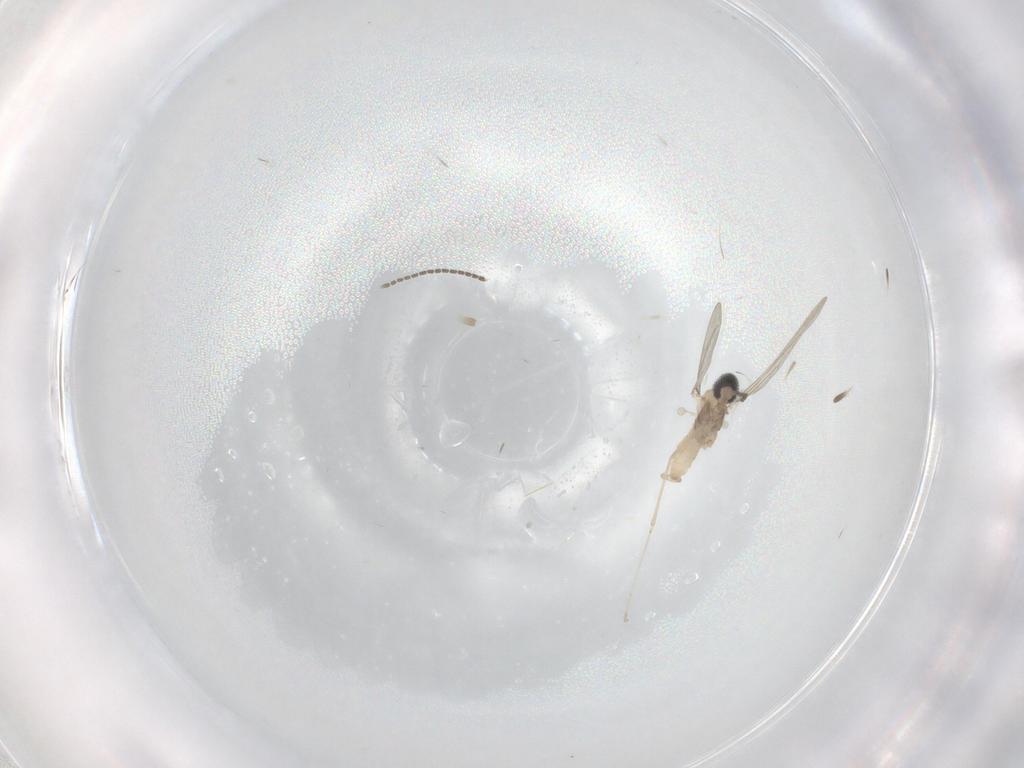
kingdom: Animalia
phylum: Arthropoda
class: Insecta
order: Diptera
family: Cecidomyiidae
